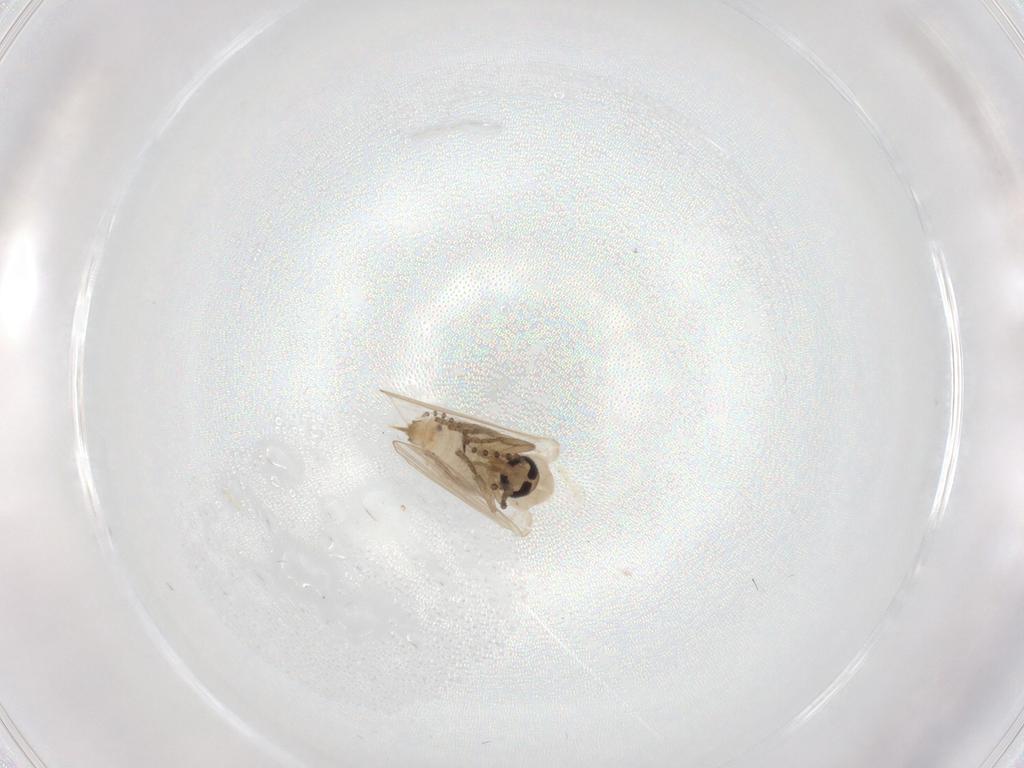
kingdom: Animalia
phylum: Arthropoda
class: Insecta
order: Diptera
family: Psychodidae
